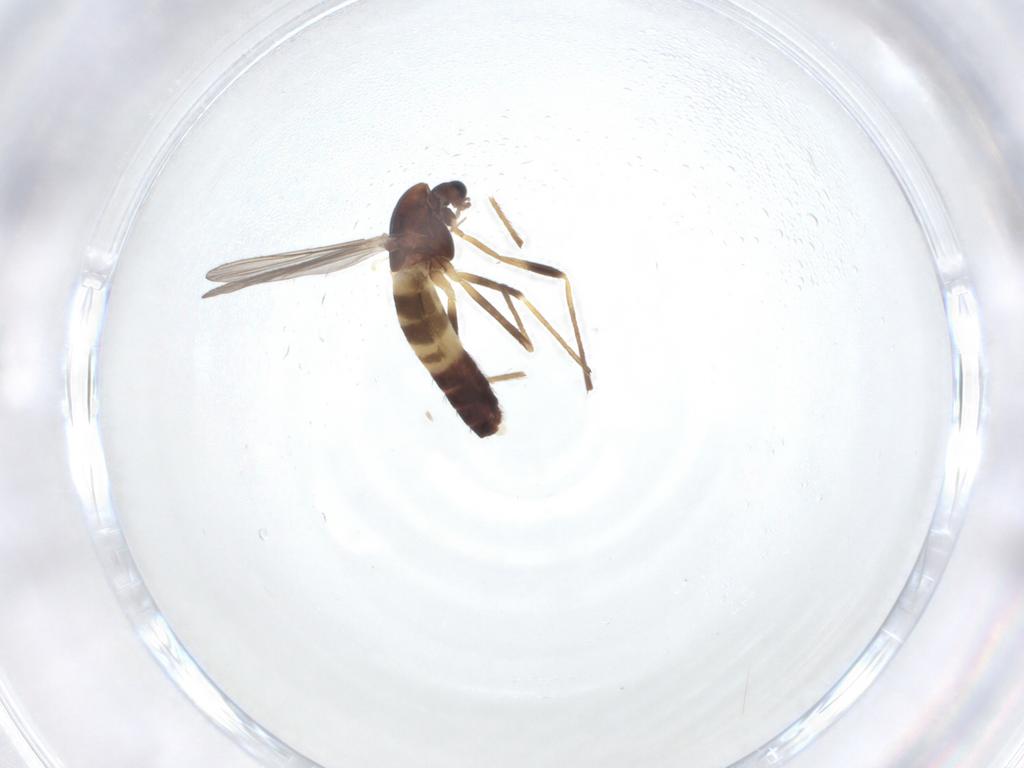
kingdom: Animalia
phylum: Arthropoda
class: Insecta
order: Diptera
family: Chironomidae
